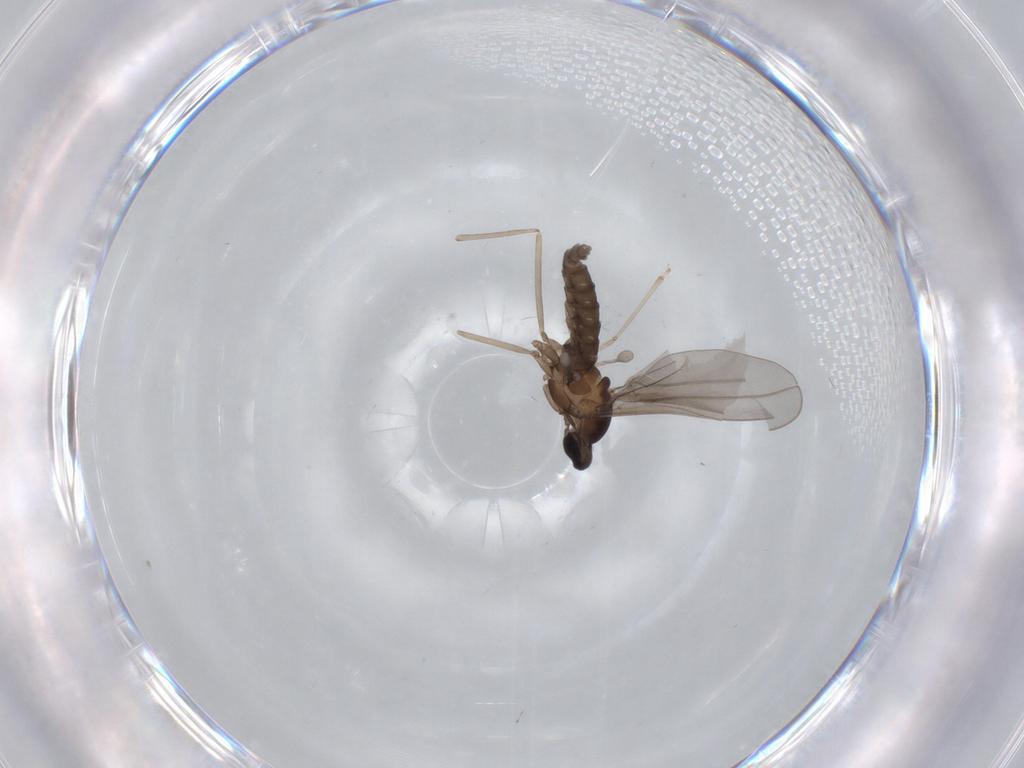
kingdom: Animalia
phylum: Arthropoda
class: Insecta
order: Diptera
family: Cecidomyiidae
